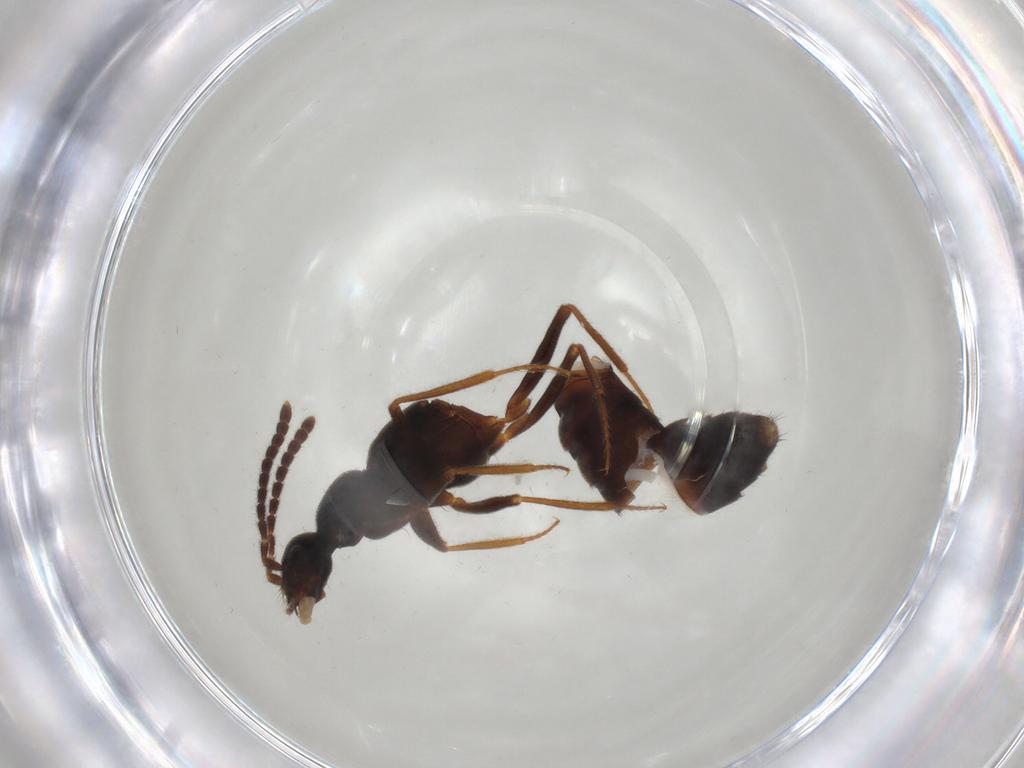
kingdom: Animalia
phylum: Arthropoda
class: Insecta
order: Coleoptera
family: Staphylinidae
